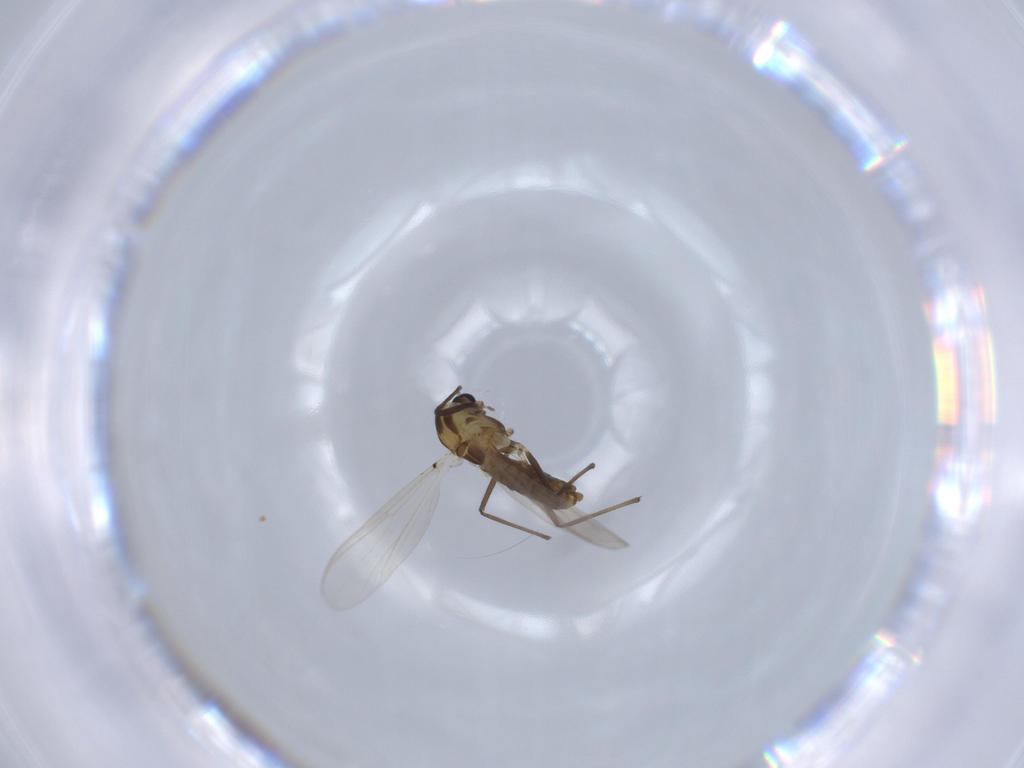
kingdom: Animalia
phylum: Arthropoda
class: Insecta
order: Diptera
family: Chironomidae
